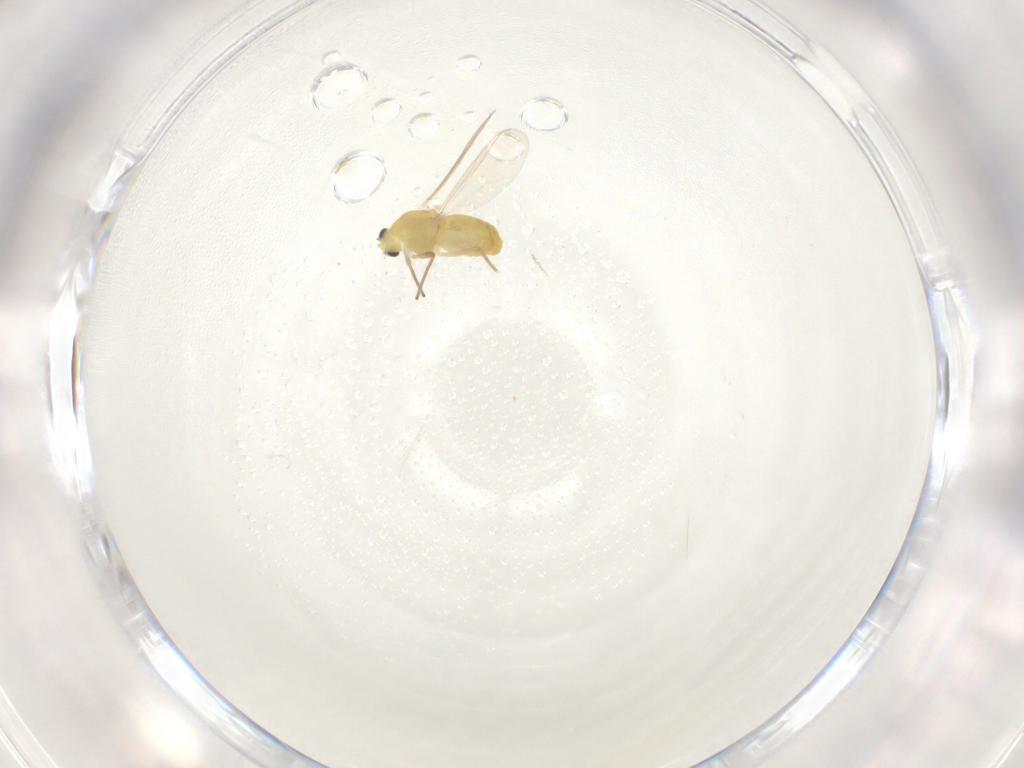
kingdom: Animalia
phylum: Arthropoda
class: Insecta
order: Diptera
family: Chironomidae
